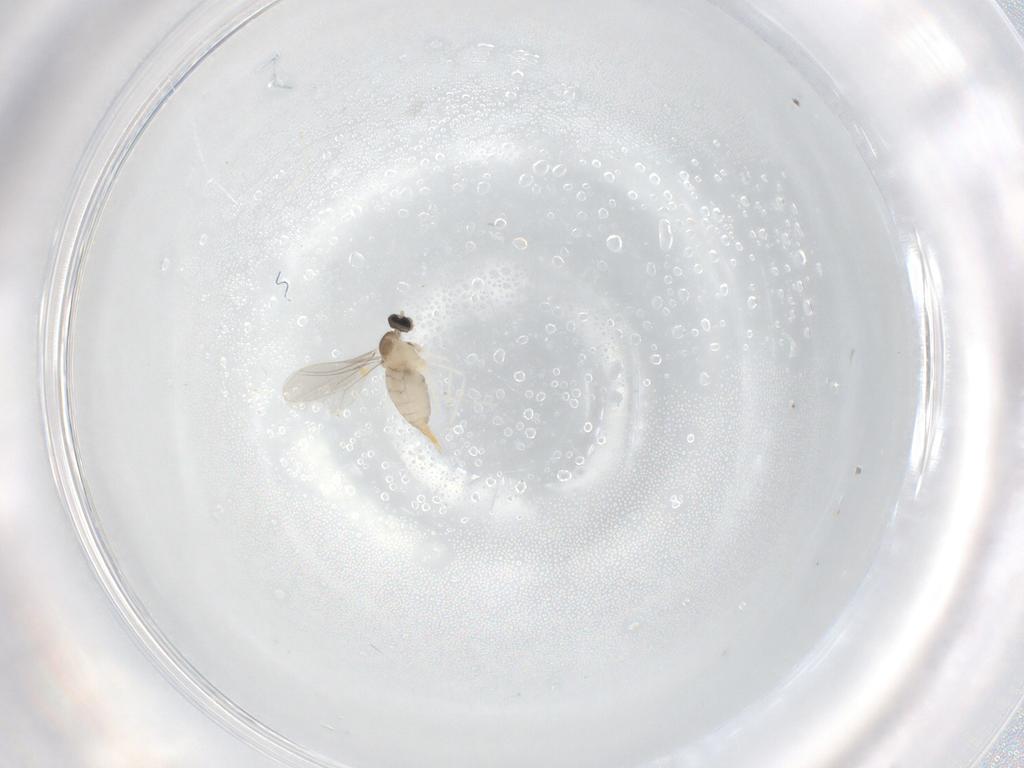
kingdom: Animalia
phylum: Arthropoda
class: Insecta
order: Diptera
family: Cecidomyiidae
